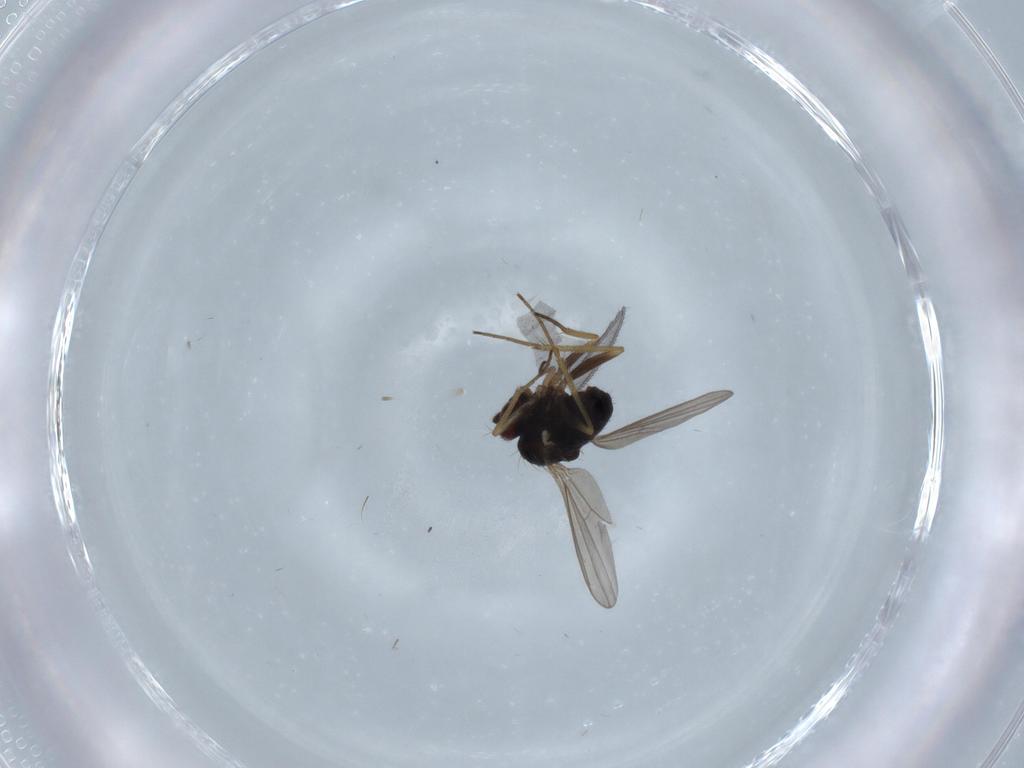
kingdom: Animalia
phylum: Arthropoda
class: Insecta
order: Diptera
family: Sciaridae
